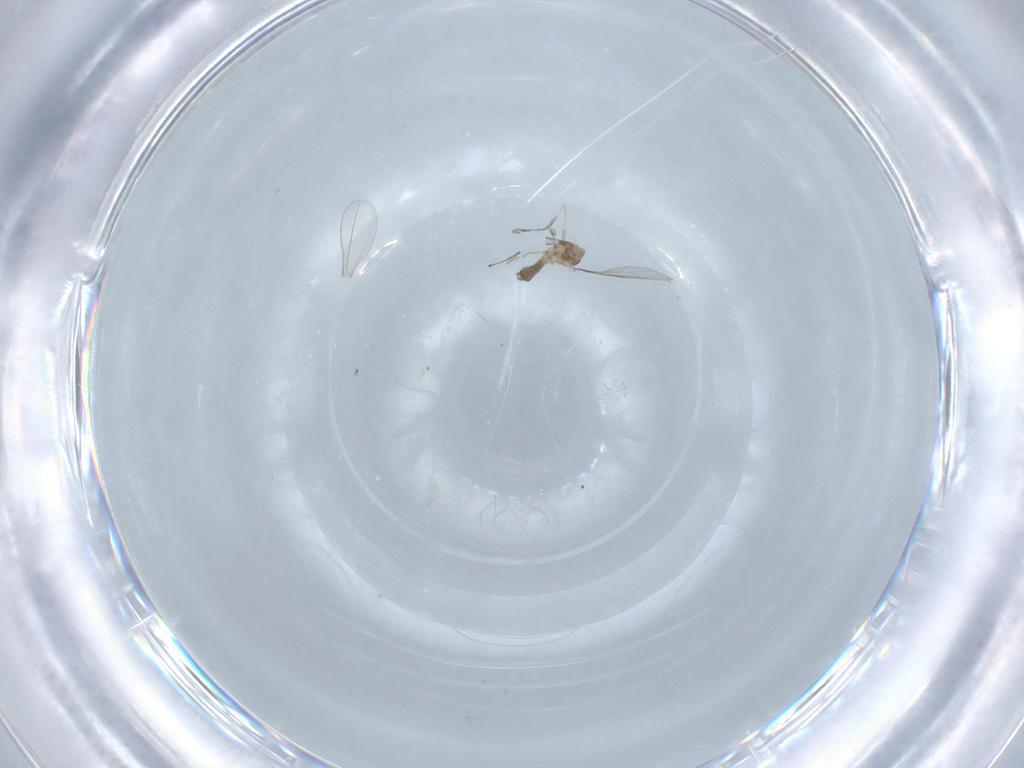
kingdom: Animalia
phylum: Arthropoda
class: Insecta
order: Diptera
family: Cecidomyiidae
